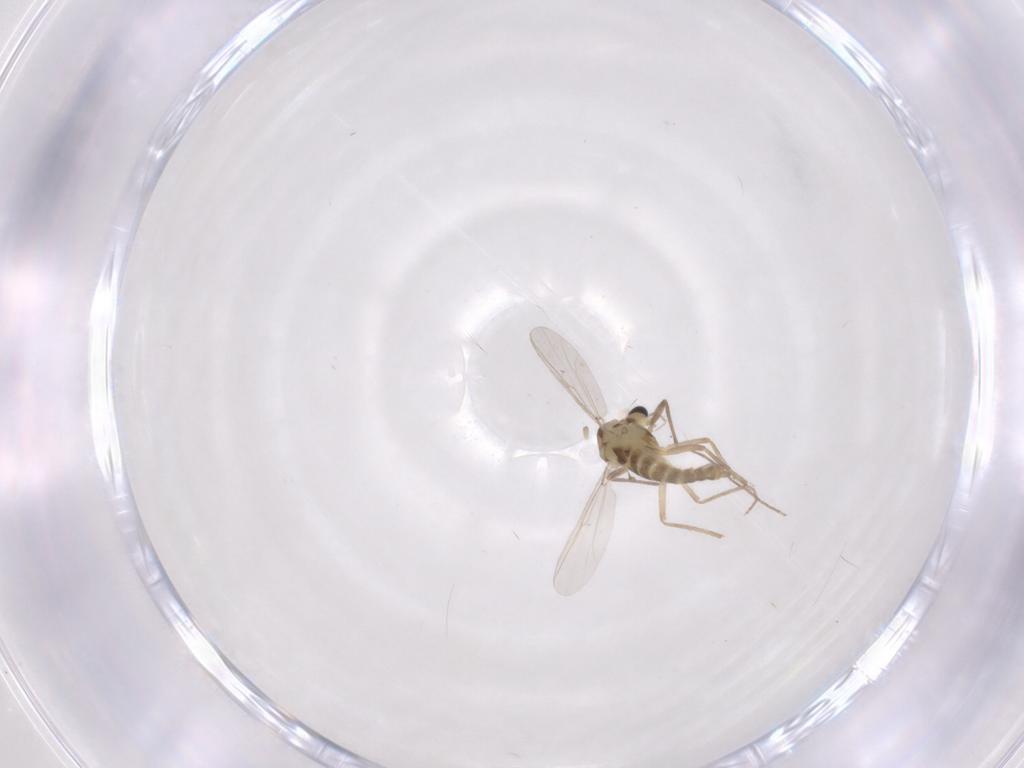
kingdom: Animalia
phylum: Arthropoda
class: Insecta
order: Diptera
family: Chironomidae
